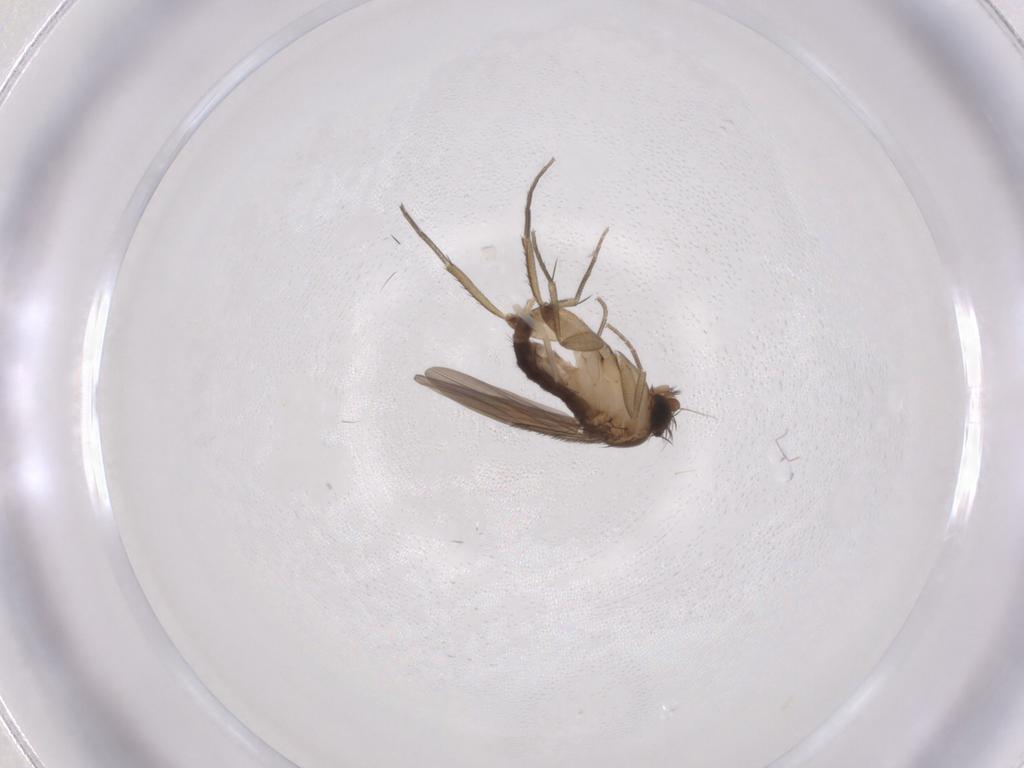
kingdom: Animalia
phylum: Arthropoda
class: Insecta
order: Diptera
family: Phoridae
